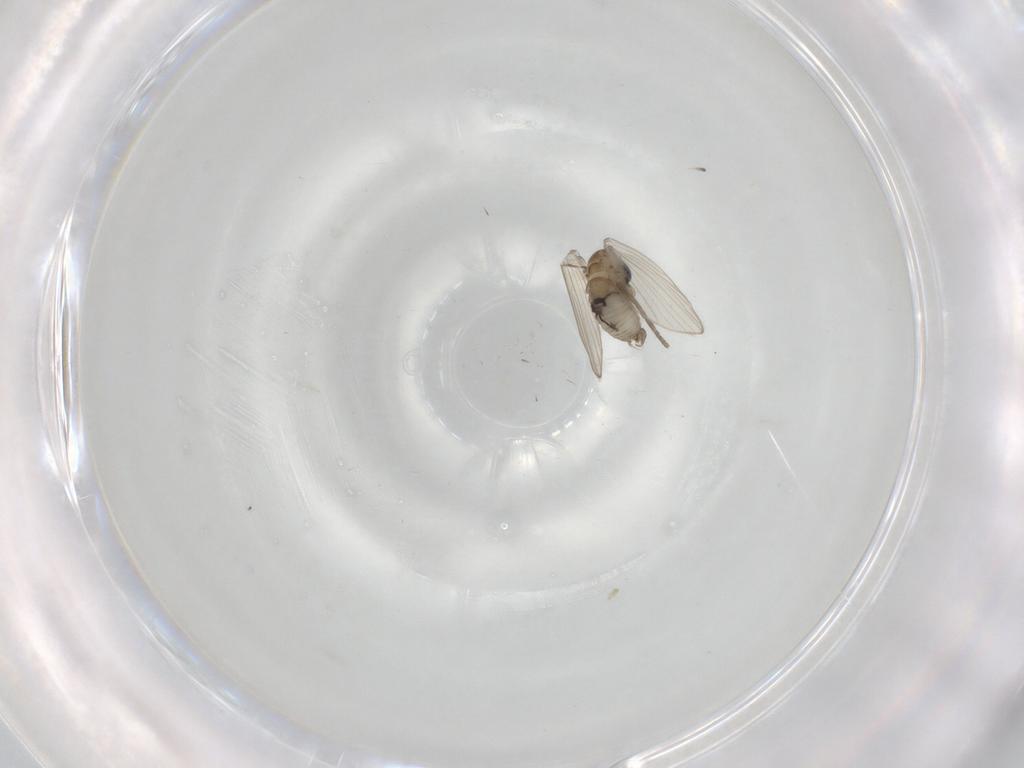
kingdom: Animalia
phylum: Arthropoda
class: Insecta
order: Diptera
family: Psychodidae
